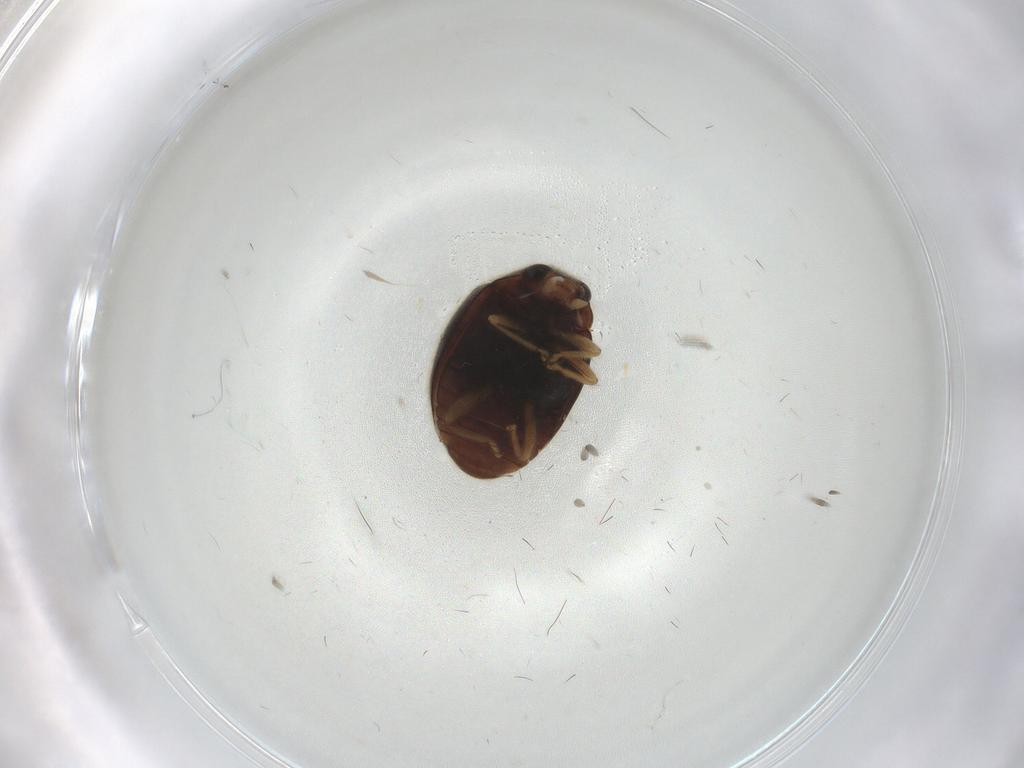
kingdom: Animalia
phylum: Arthropoda
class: Insecta
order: Coleoptera
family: Coccinellidae
